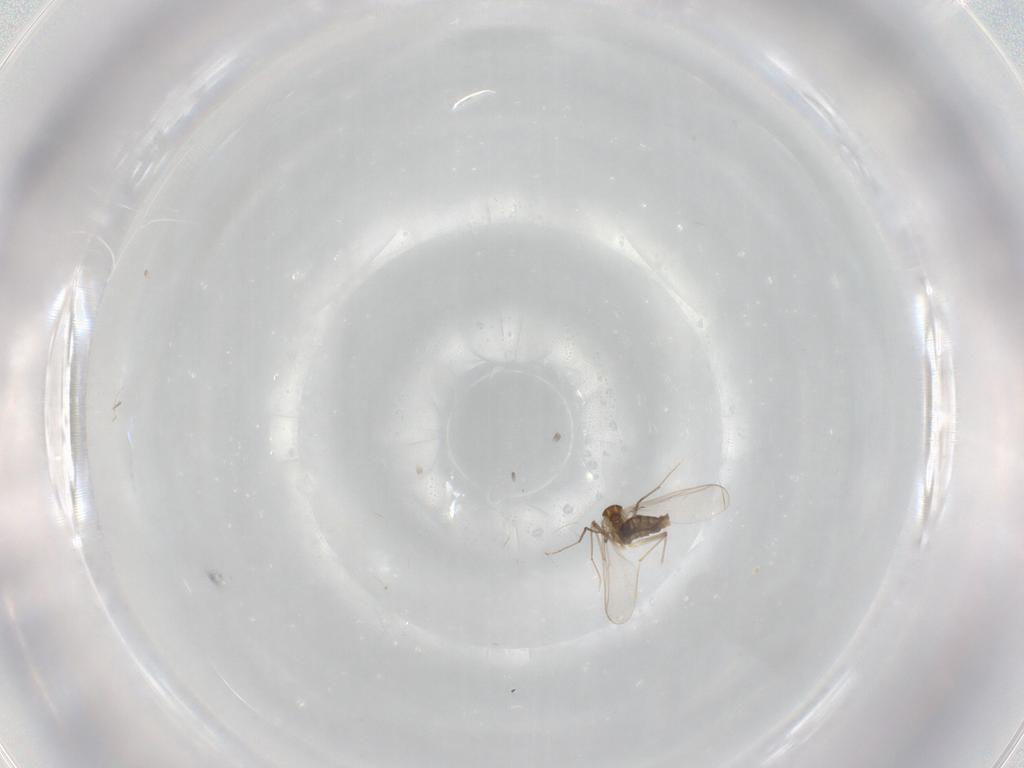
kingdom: Animalia
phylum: Arthropoda
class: Insecta
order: Diptera
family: Chironomidae
